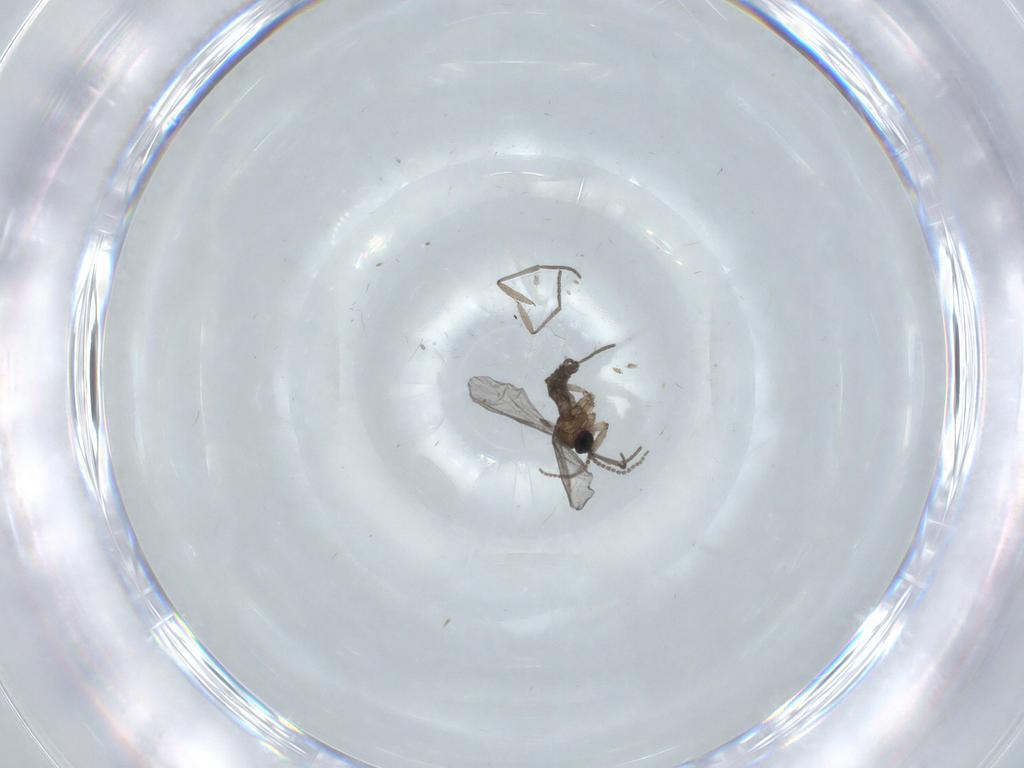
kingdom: Animalia
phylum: Arthropoda
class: Insecta
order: Diptera
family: Ceratopogonidae
